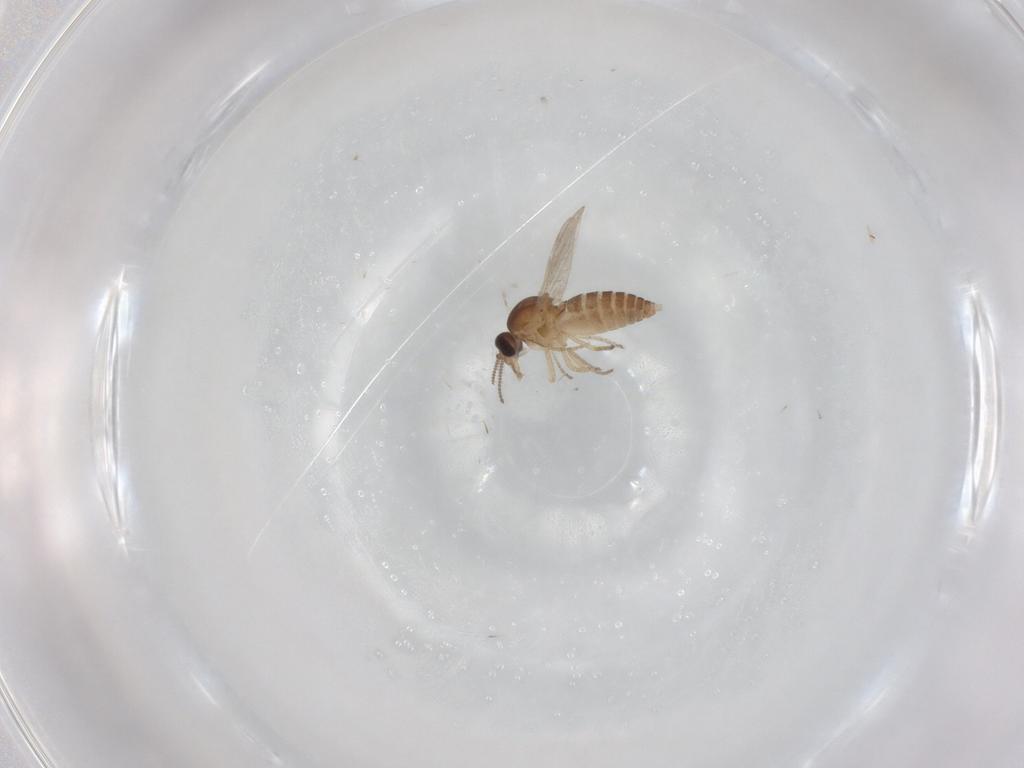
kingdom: Animalia
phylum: Arthropoda
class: Insecta
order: Diptera
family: Ceratopogonidae
